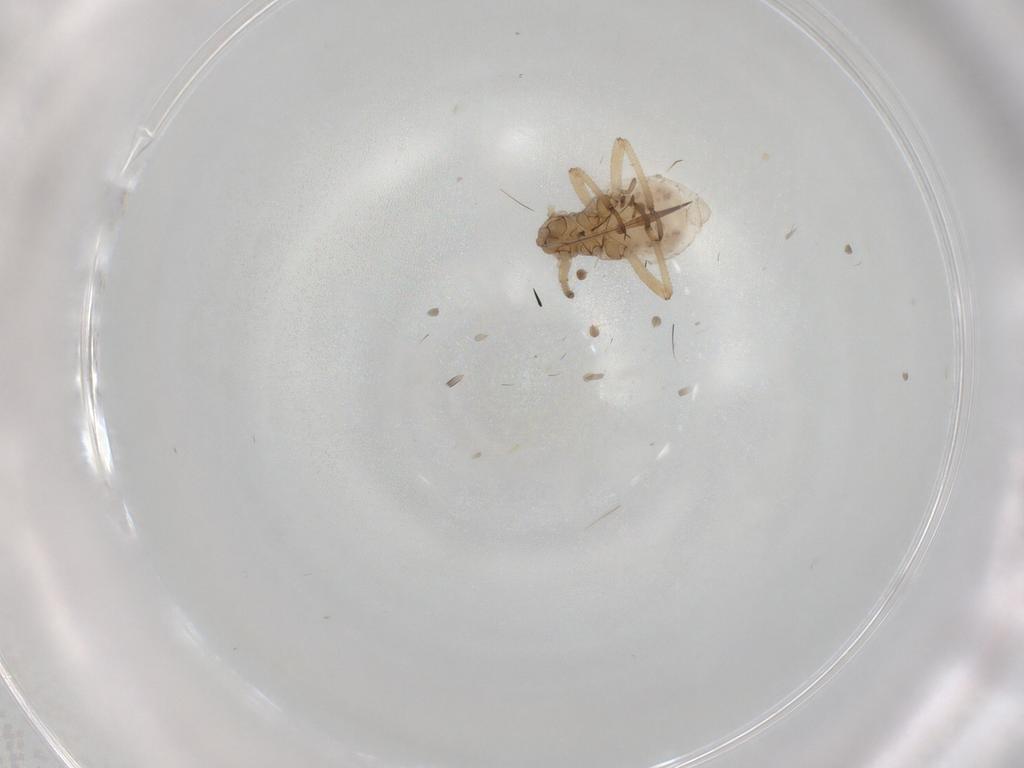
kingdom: Animalia
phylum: Arthropoda
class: Insecta
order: Hemiptera
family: Aphididae
